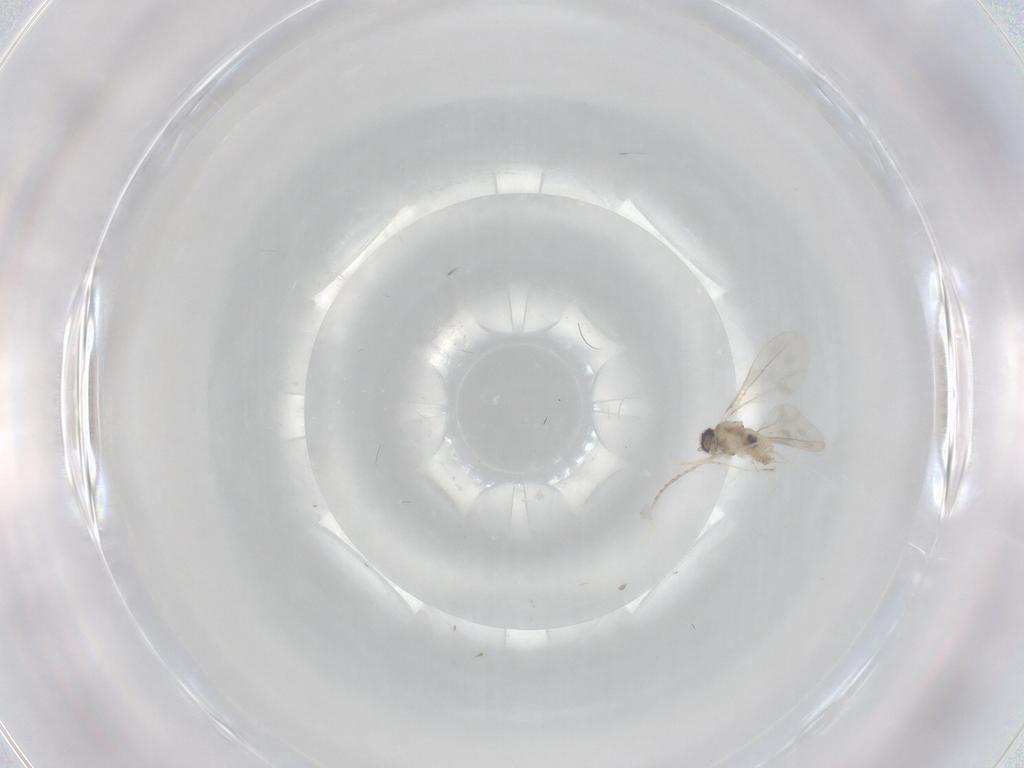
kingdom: Animalia
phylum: Arthropoda
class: Insecta
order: Diptera
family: Cecidomyiidae
